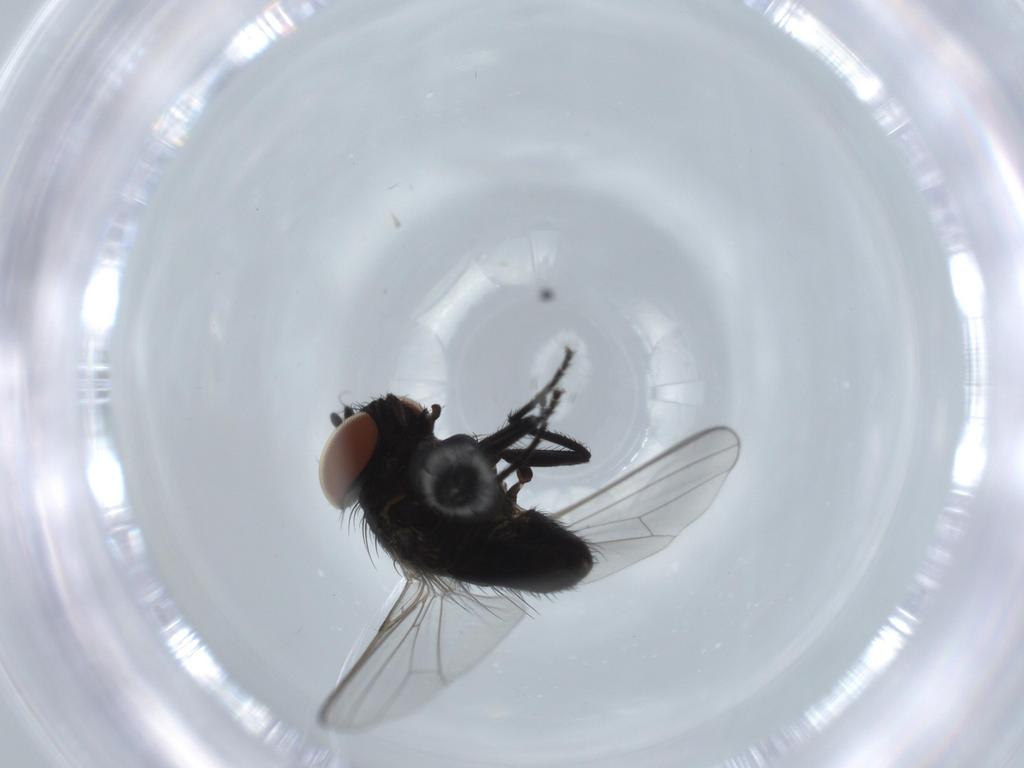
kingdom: Animalia
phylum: Arthropoda
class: Insecta
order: Diptera
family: Milichiidae
